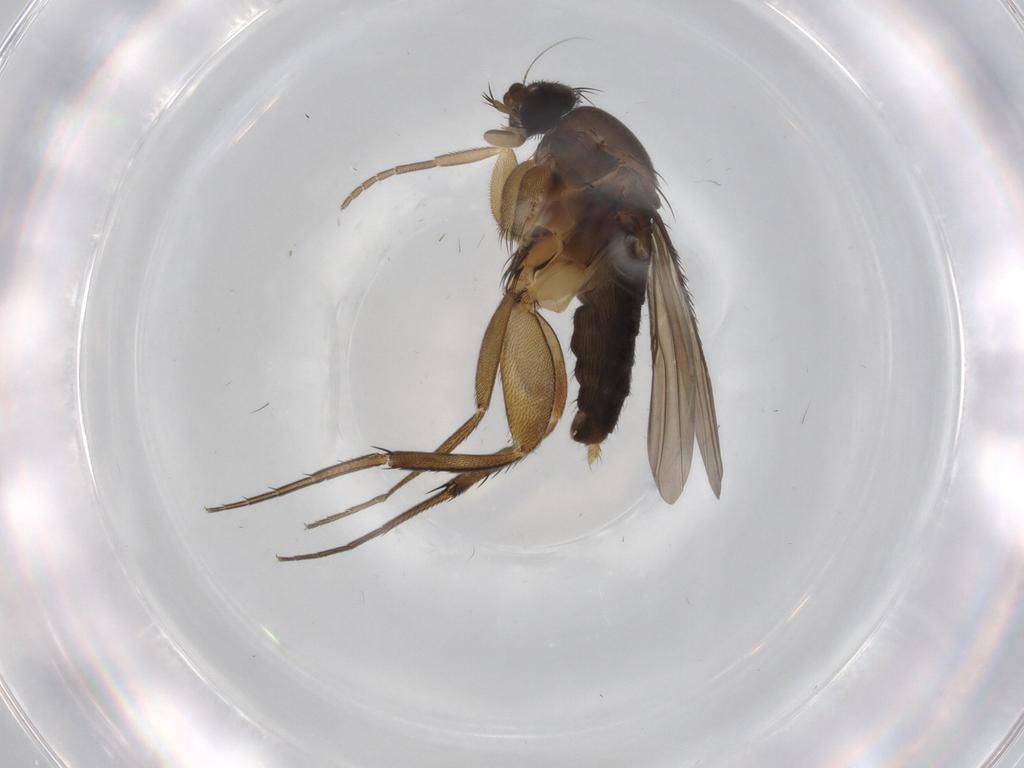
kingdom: Animalia
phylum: Arthropoda
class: Insecta
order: Diptera
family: Phoridae
